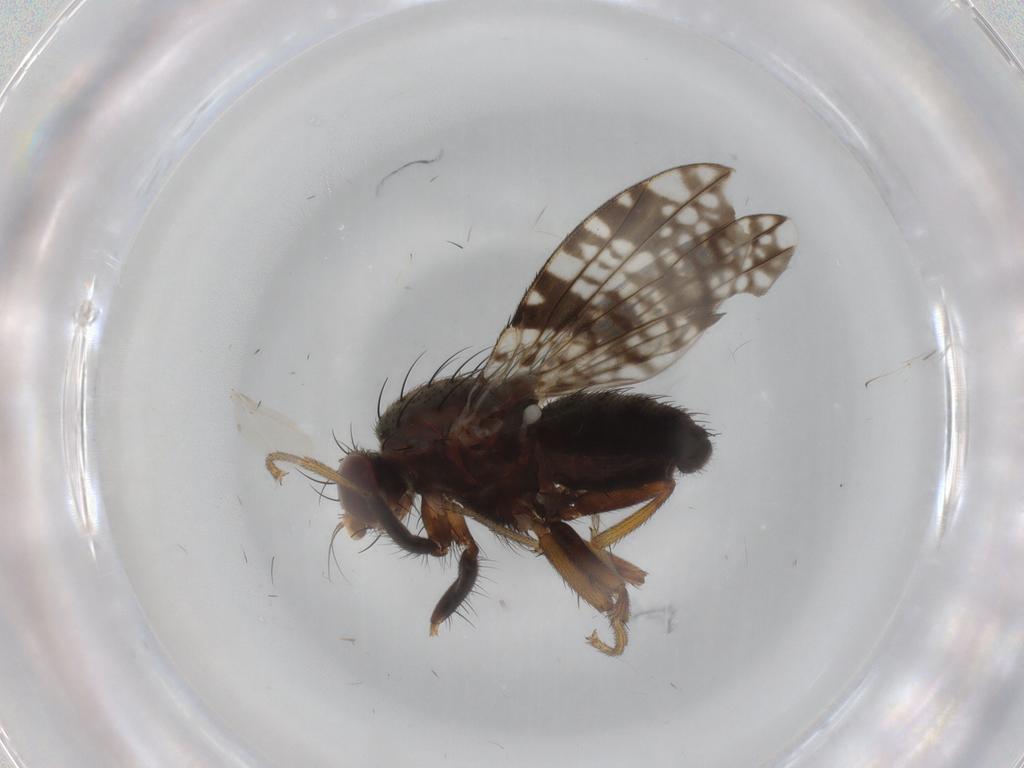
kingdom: Animalia
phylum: Arthropoda
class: Insecta
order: Diptera
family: Tephritidae
